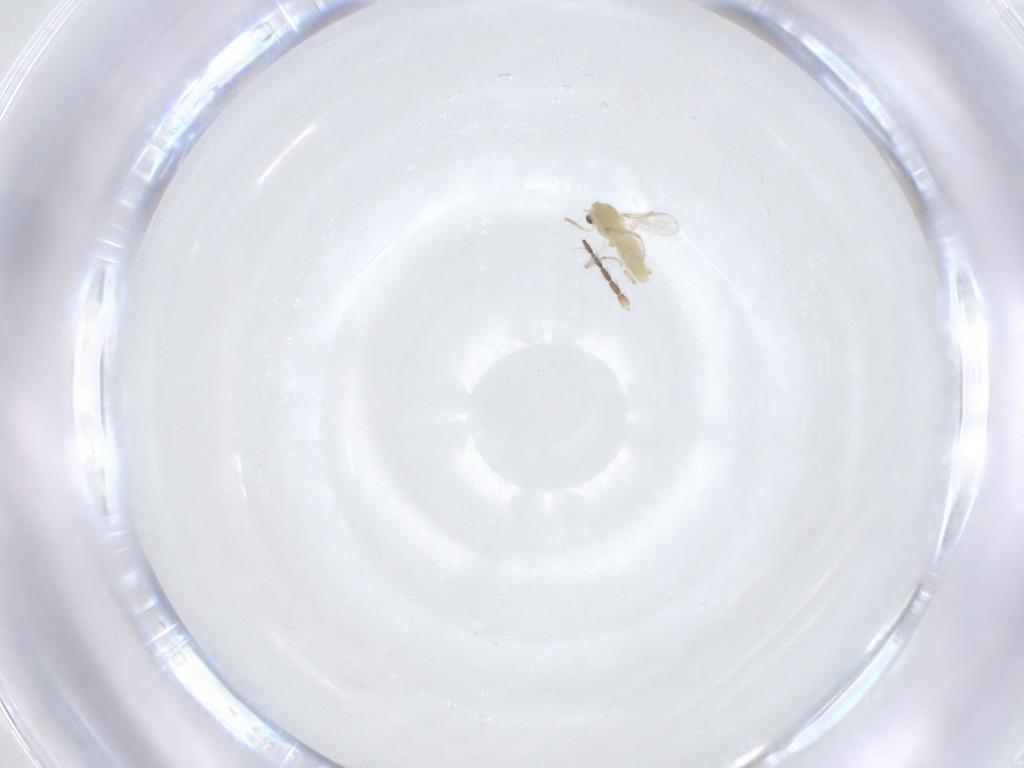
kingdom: Animalia
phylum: Arthropoda
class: Insecta
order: Diptera
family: Chironomidae
